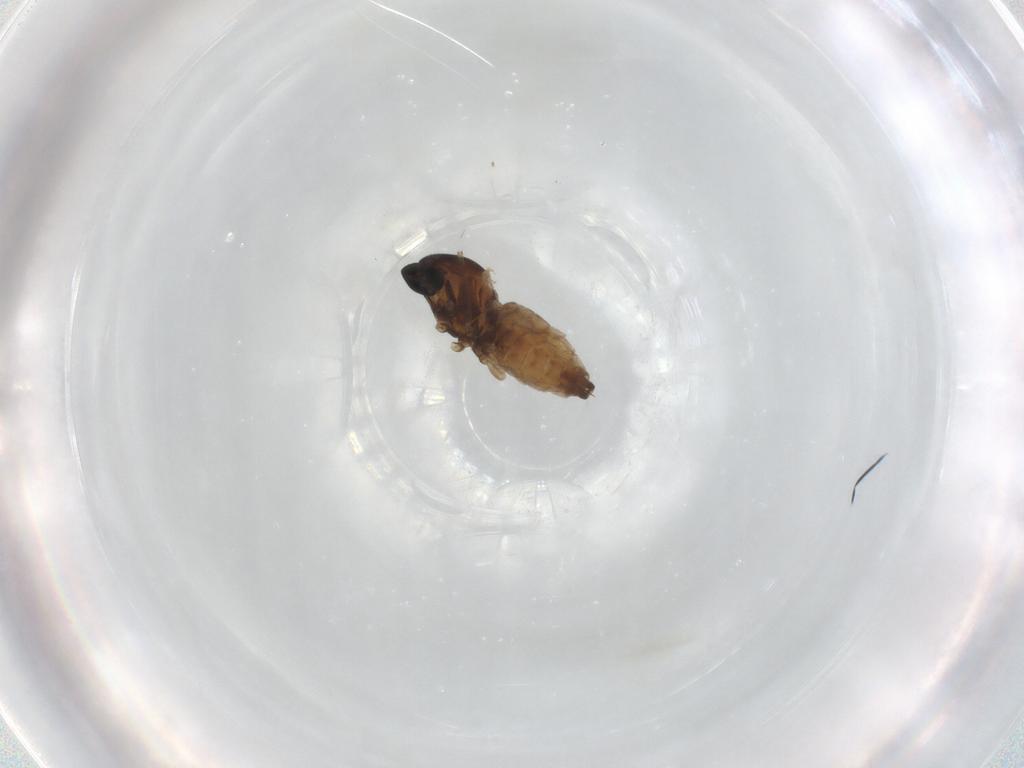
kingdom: Animalia
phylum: Arthropoda
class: Insecta
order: Diptera
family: Cecidomyiidae
